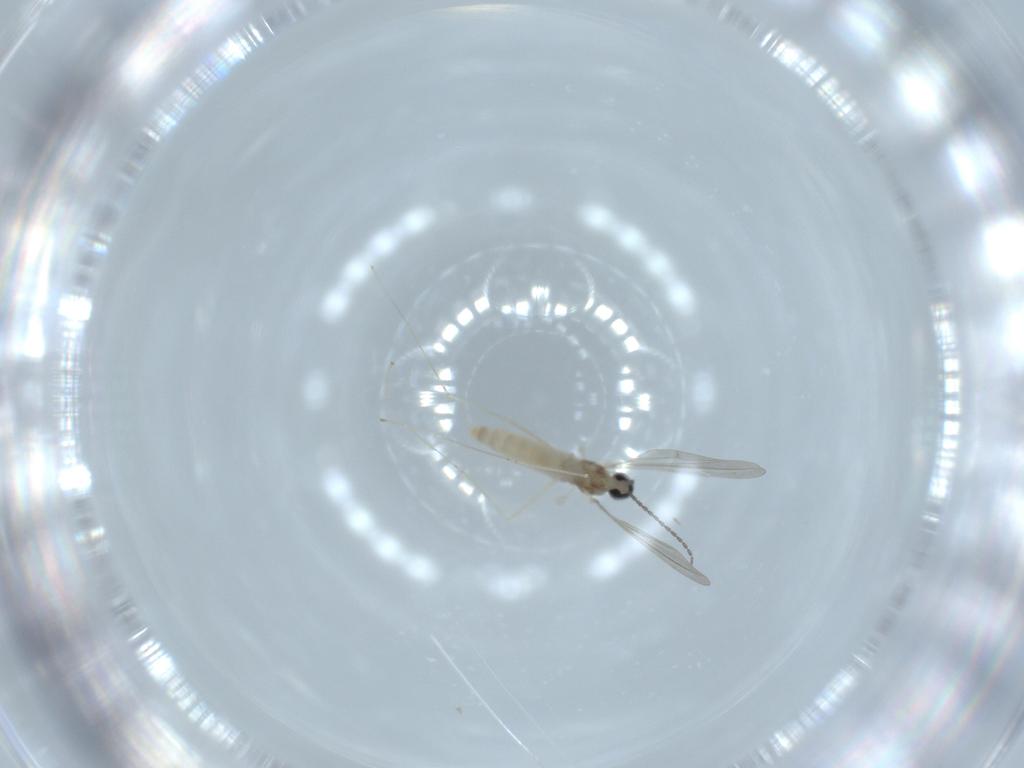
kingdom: Animalia
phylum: Arthropoda
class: Insecta
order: Diptera
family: Cecidomyiidae
